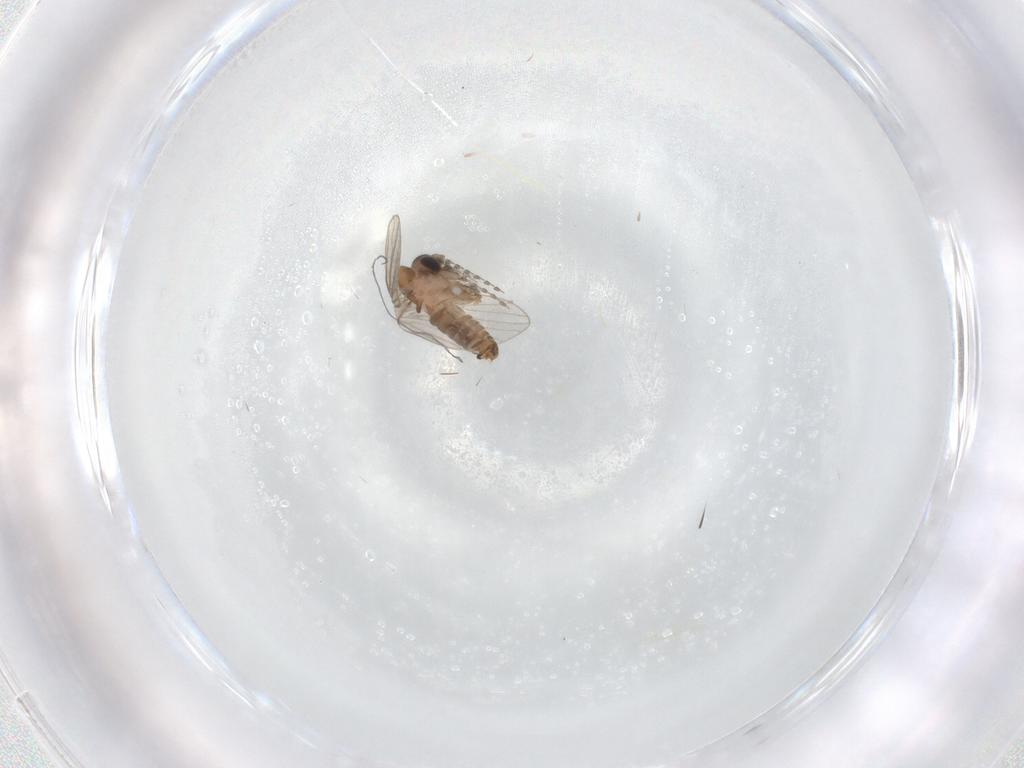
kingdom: Animalia
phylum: Arthropoda
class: Insecta
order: Diptera
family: Psychodidae
